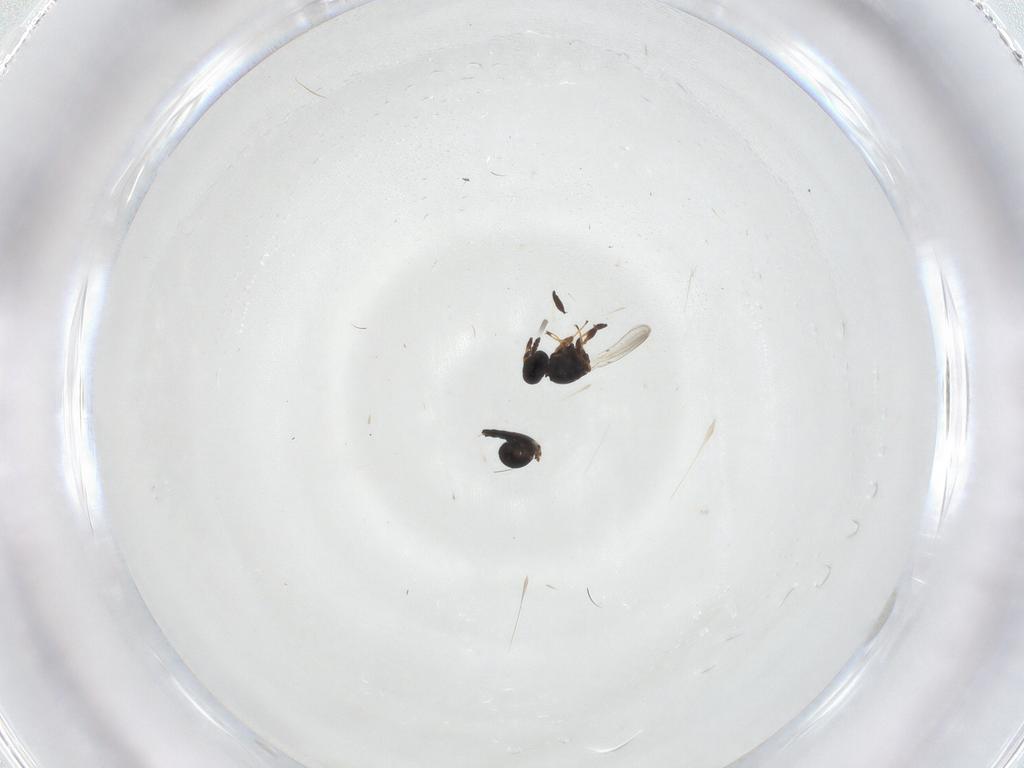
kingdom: Animalia
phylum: Arthropoda
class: Insecta
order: Hymenoptera
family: Platygastridae
